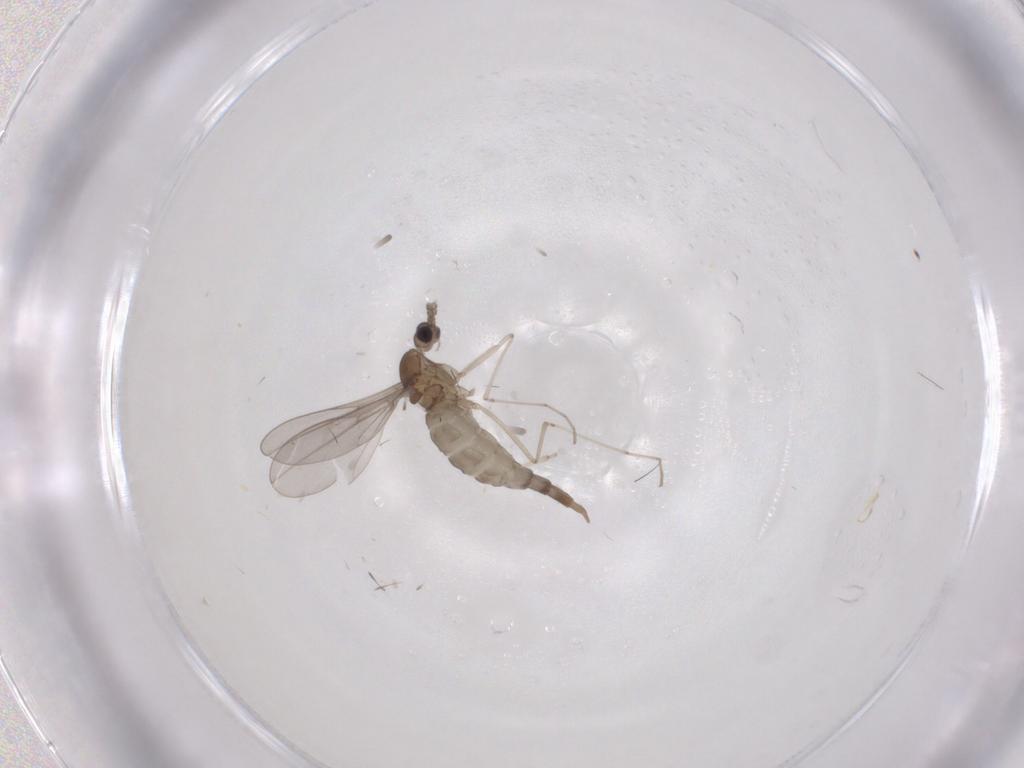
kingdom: Animalia
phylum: Arthropoda
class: Insecta
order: Diptera
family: Cecidomyiidae
